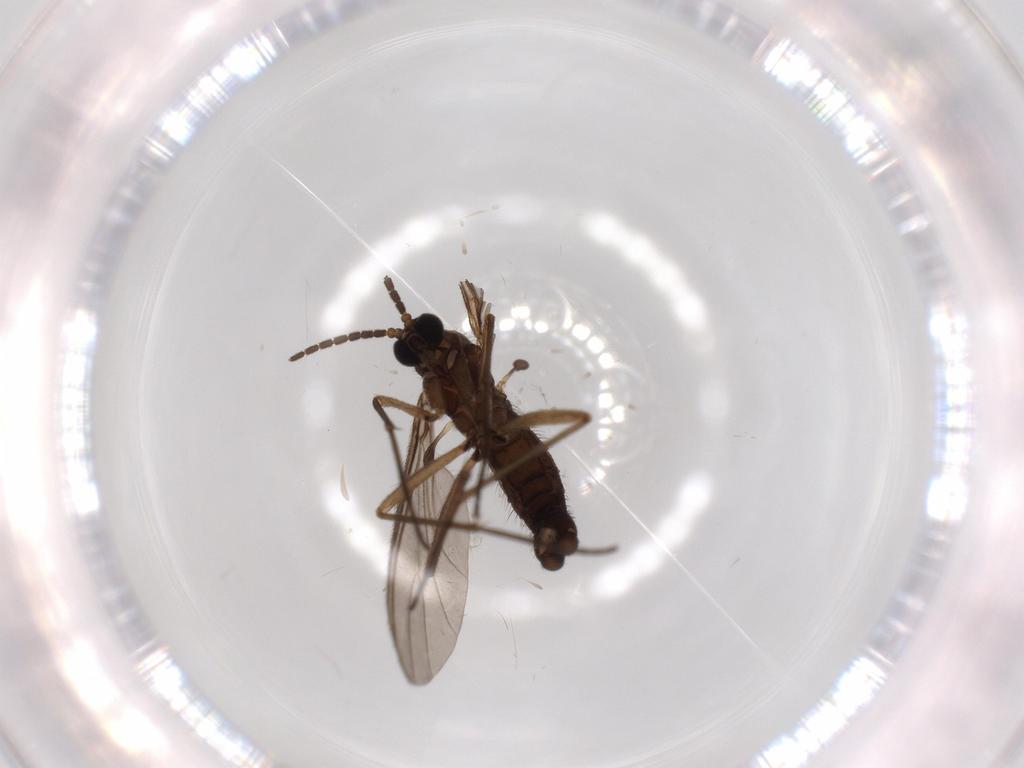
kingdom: Animalia
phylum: Arthropoda
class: Insecta
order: Diptera
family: Sciaridae
